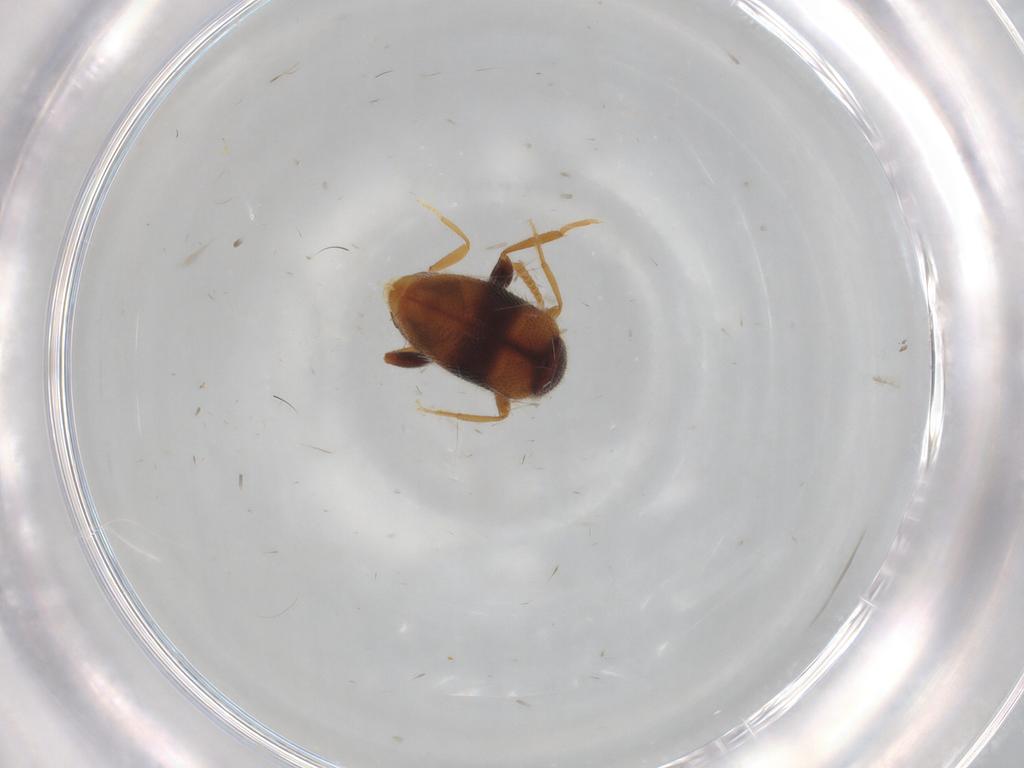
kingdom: Animalia
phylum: Arthropoda
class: Insecta
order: Coleoptera
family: Aderidae
